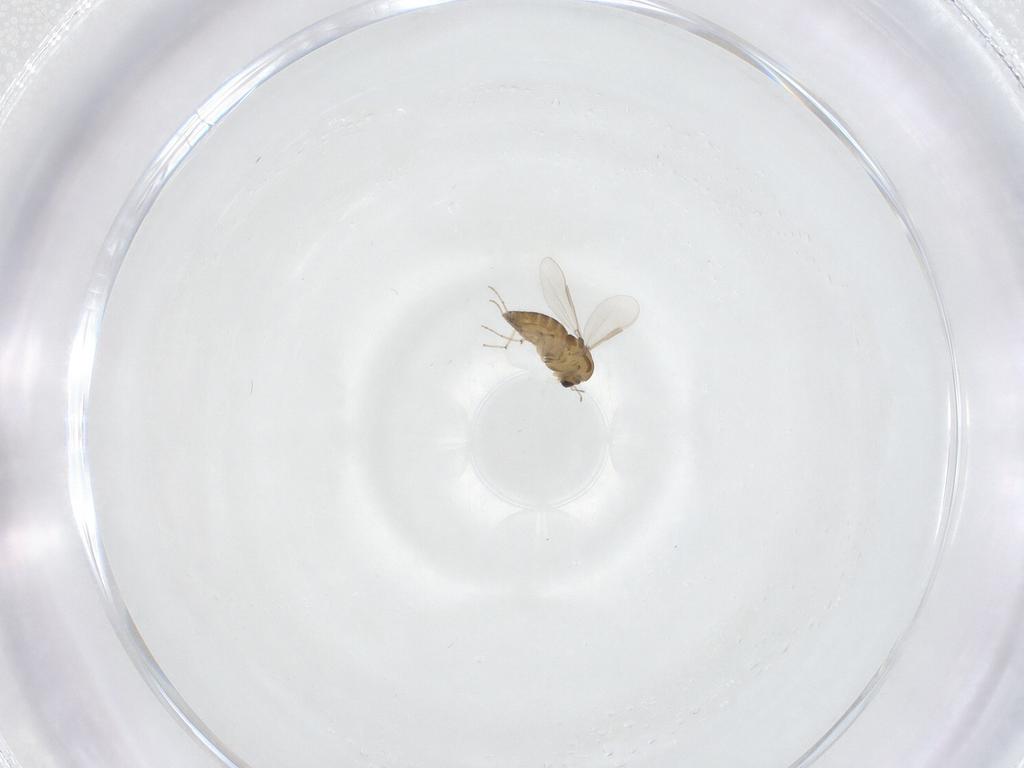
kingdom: Animalia
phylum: Arthropoda
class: Insecta
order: Diptera
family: Chironomidae
